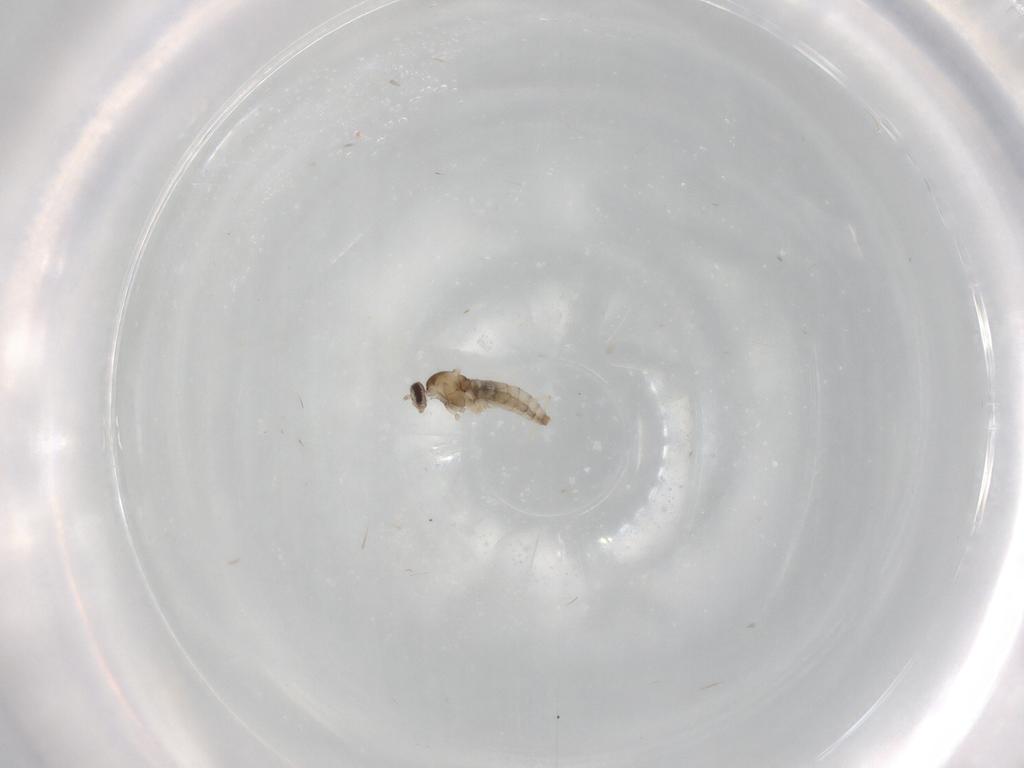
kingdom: Animalia
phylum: Arthropoda
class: Insecta
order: Diptera
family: Cecidomyiidae
